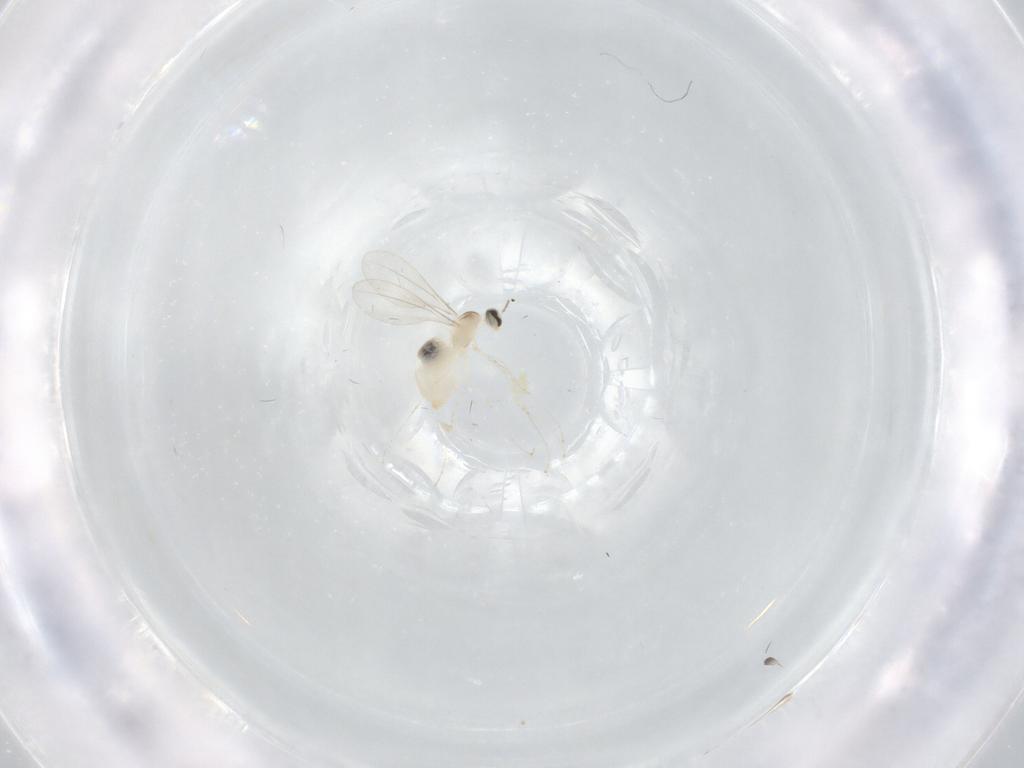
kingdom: Animalia
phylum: Arthropoda
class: Insecta
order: Diptera
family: Cecidomyiidae
